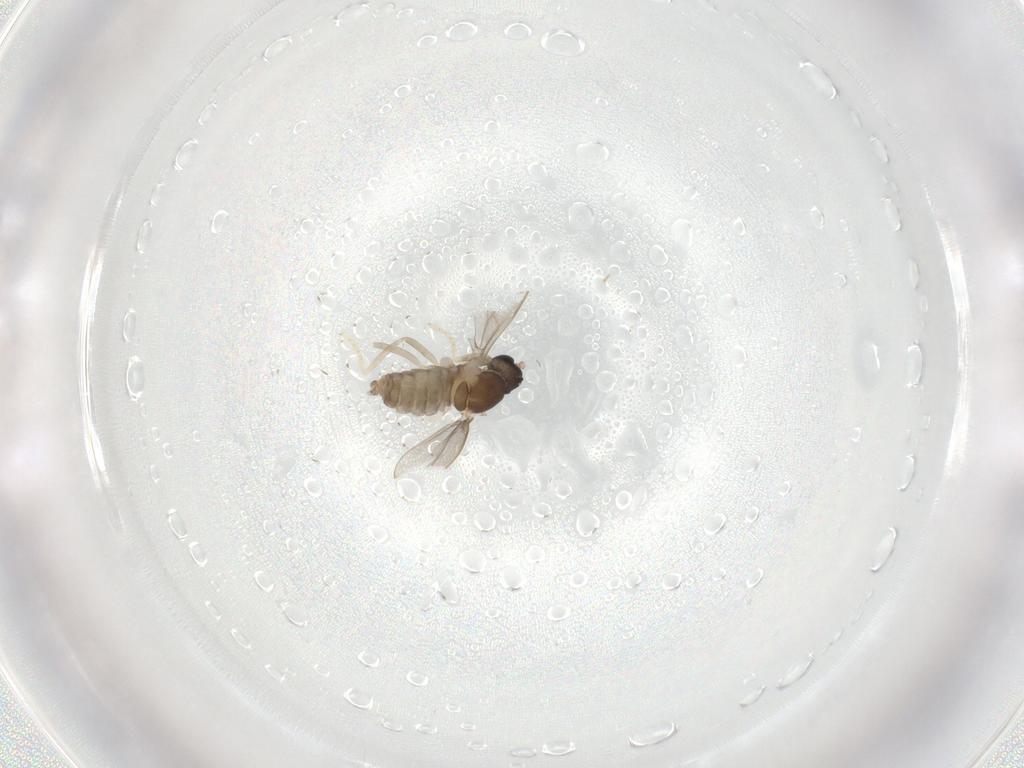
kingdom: Animalia
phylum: Arthropoda
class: Insecta
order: Diptera
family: Cecidomyiidae
